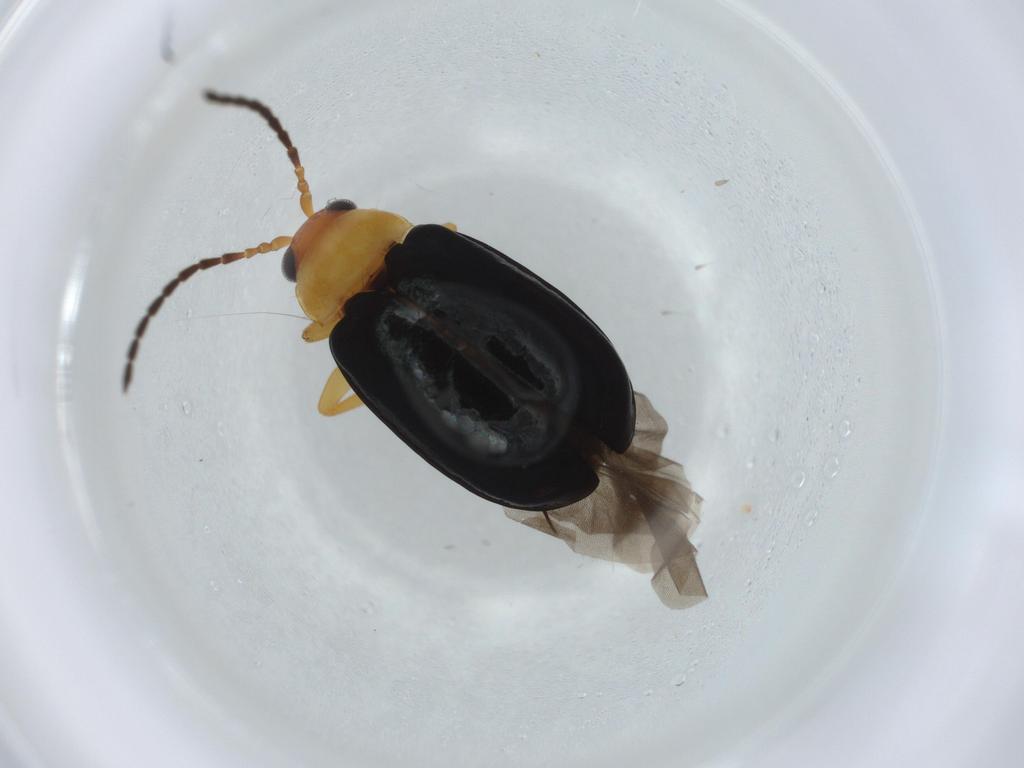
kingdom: Animalia
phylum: Arthropoda
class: Insecta
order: Coleoptera
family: Chrysomelidae
